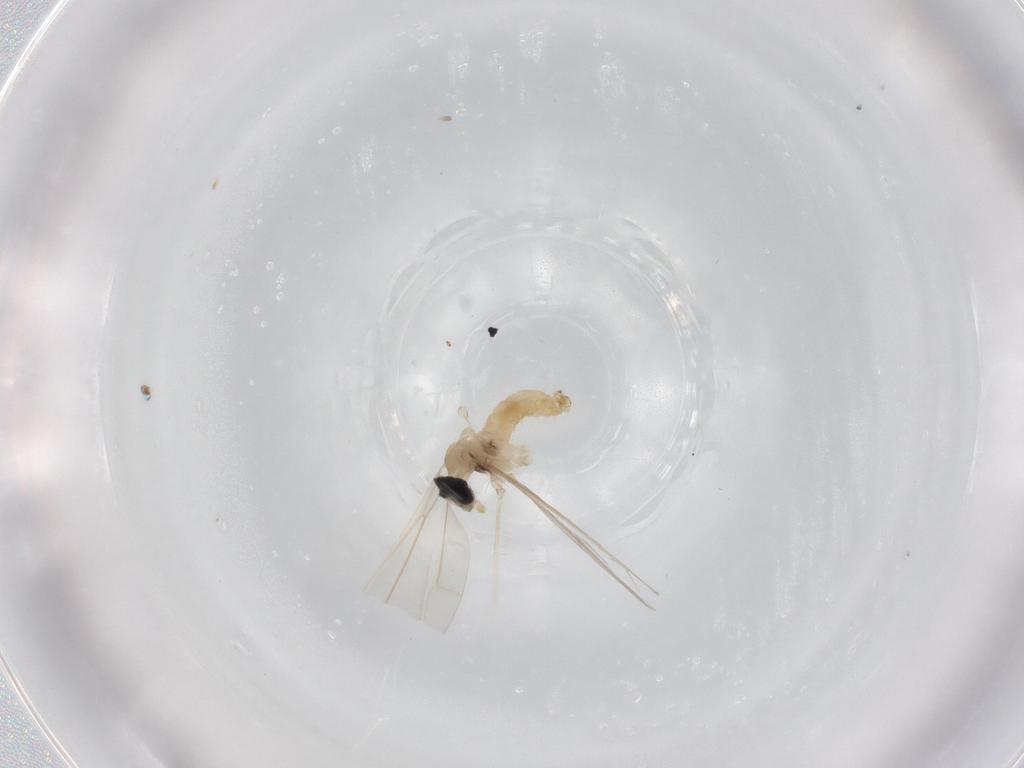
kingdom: Animalia
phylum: Arthropoda
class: Insecta
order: Diptera
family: Cecidomyiidae
